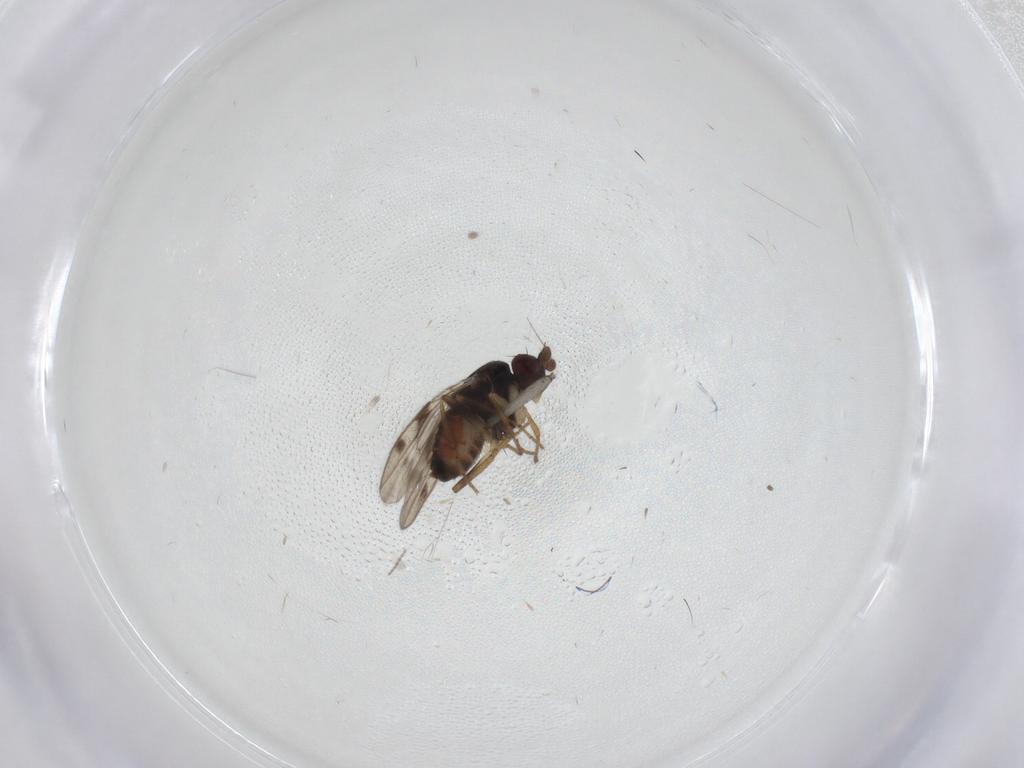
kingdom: Animalia
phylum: Arthropoda
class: Insecta
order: Diptera
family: Sphaeroceridae
